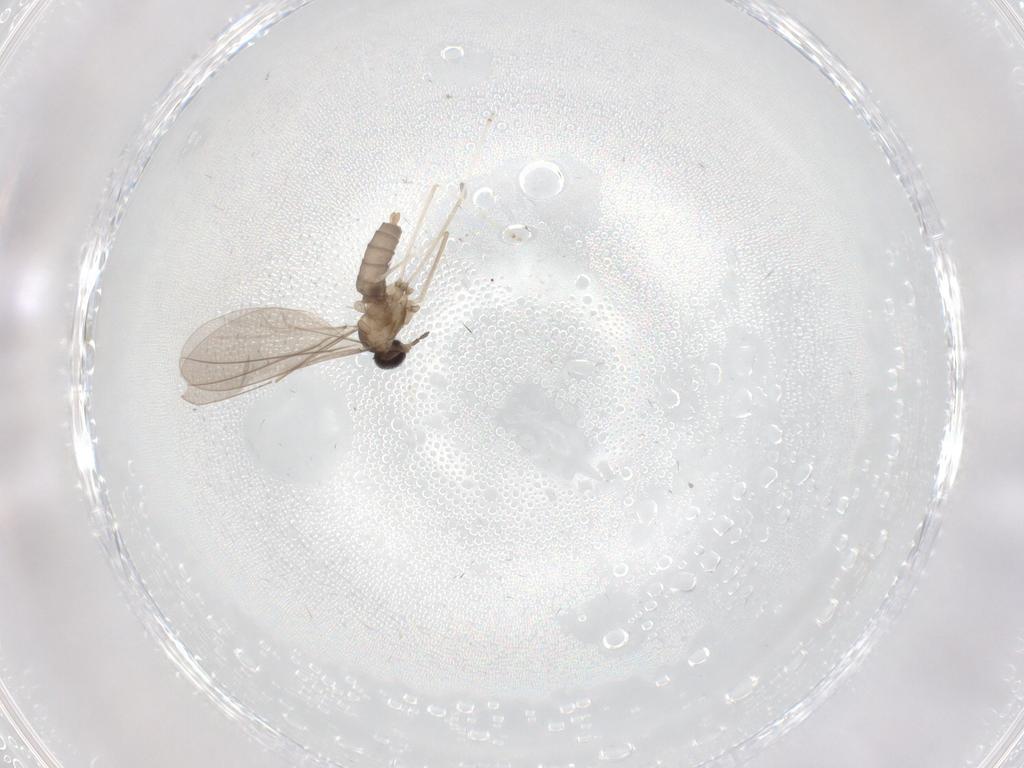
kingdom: Animalia
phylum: Arthropoda
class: Insecta
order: Diptera
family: Cecidomyiidae
